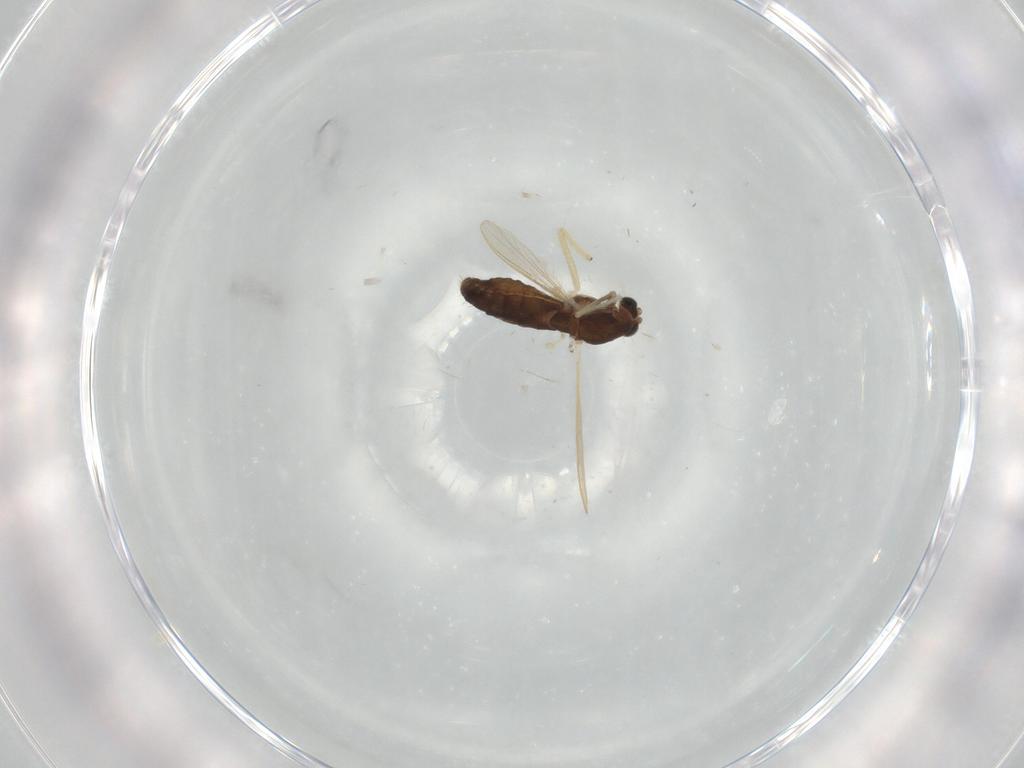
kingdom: Animalia
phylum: Arthropoda
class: Insecta
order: Diptera
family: Chironomidae
